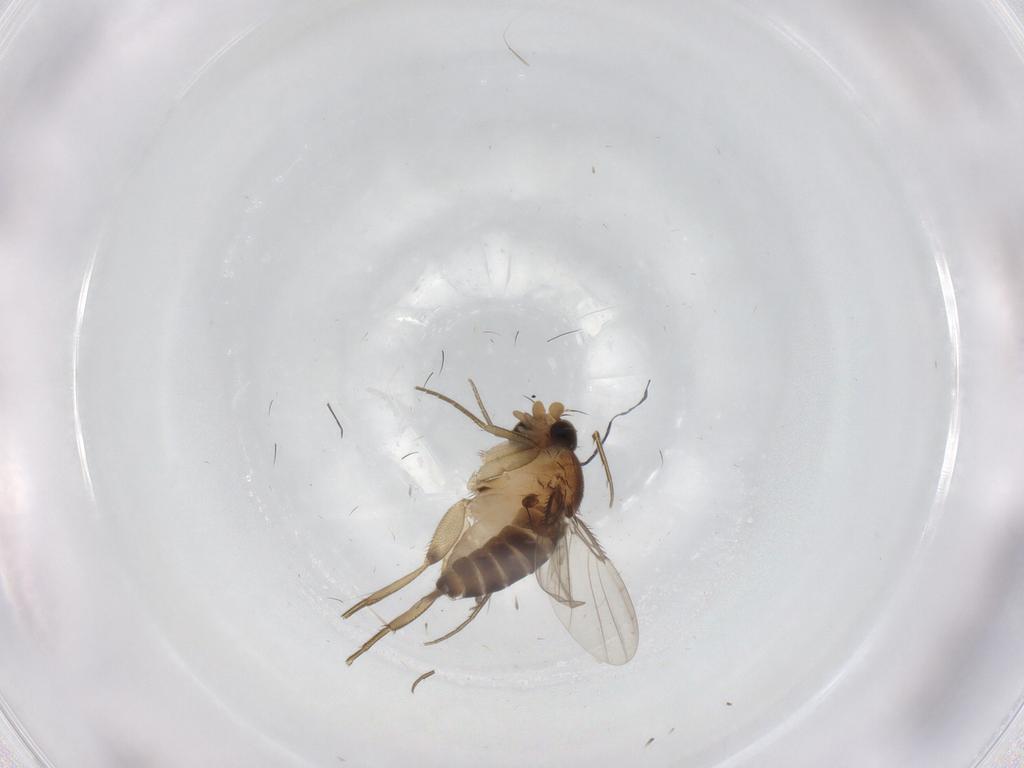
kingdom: Animalia
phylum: Arthropoda
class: Insecta
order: Diptera
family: Phoridae
